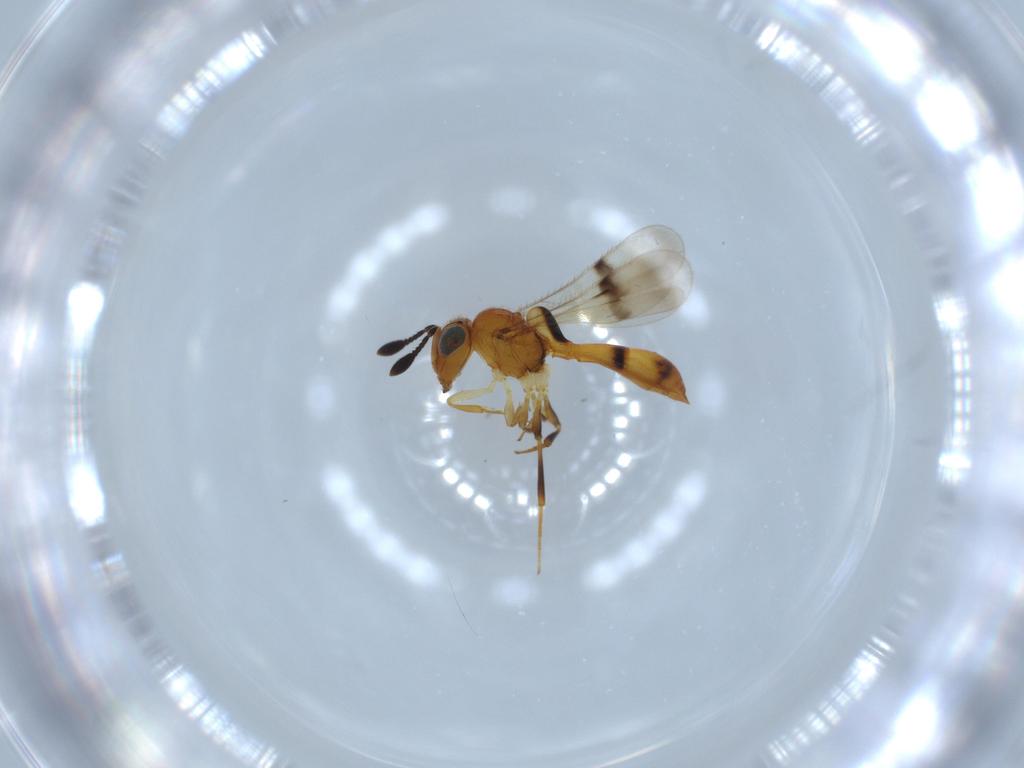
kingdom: Animalia
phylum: Arthropoda
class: Insecta
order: Hymenoptera
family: Scelionidae
